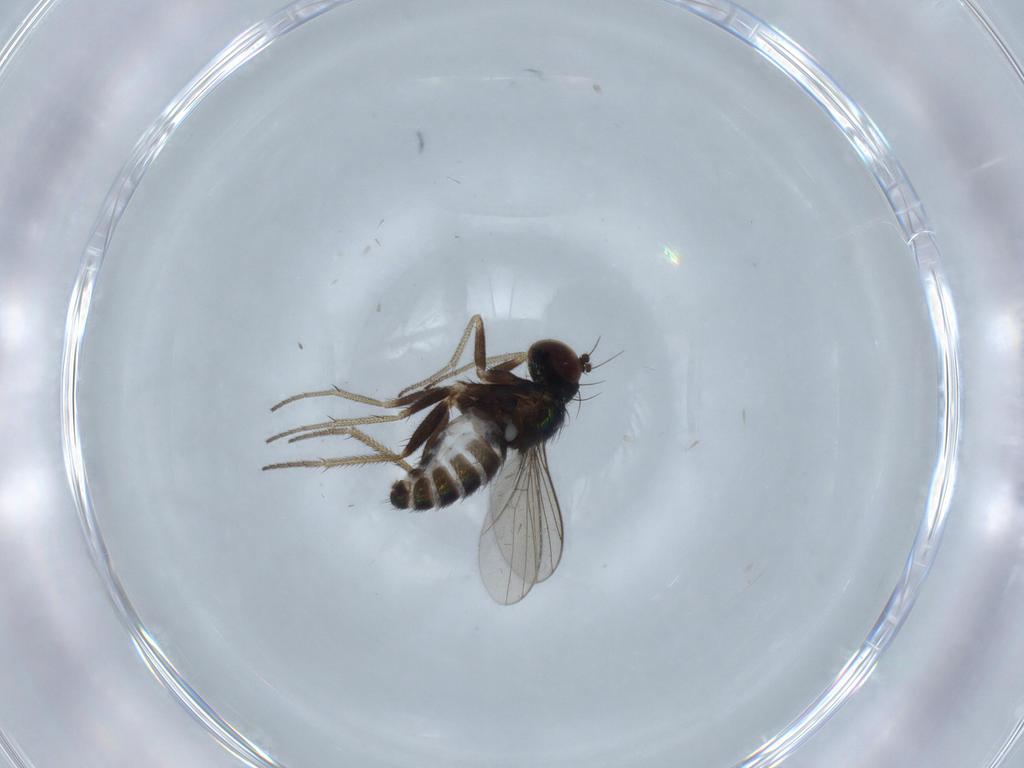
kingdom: Animalia
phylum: Arthropoda
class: Insecta
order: Diptera
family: Dolichopodidae
